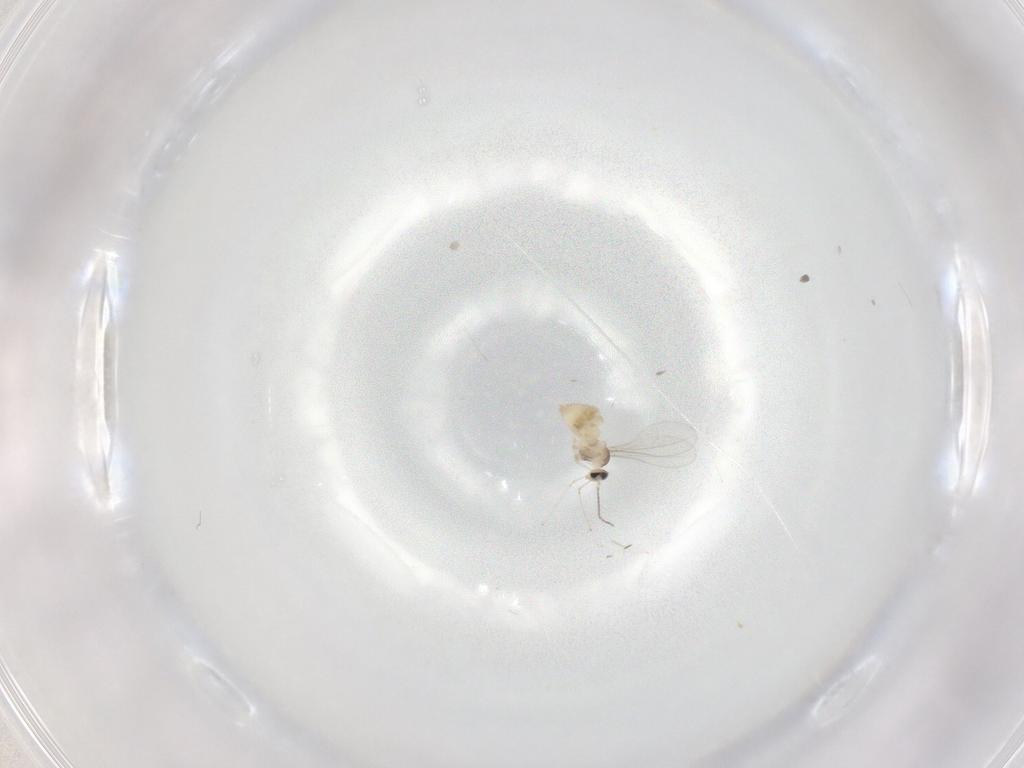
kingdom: Animalia
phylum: Arthropoda
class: Insecta
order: Diptera
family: Cecidomyiidae
